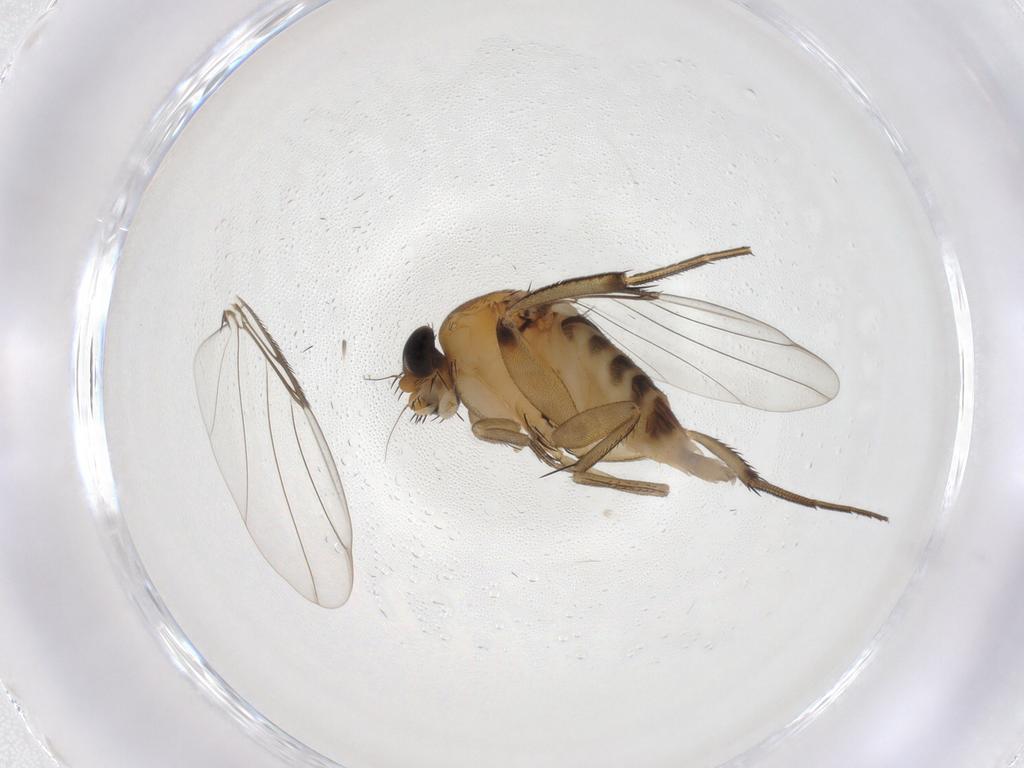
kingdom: Animalia
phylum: Arthropoda
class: Insecta
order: Diptera
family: Phoridae
